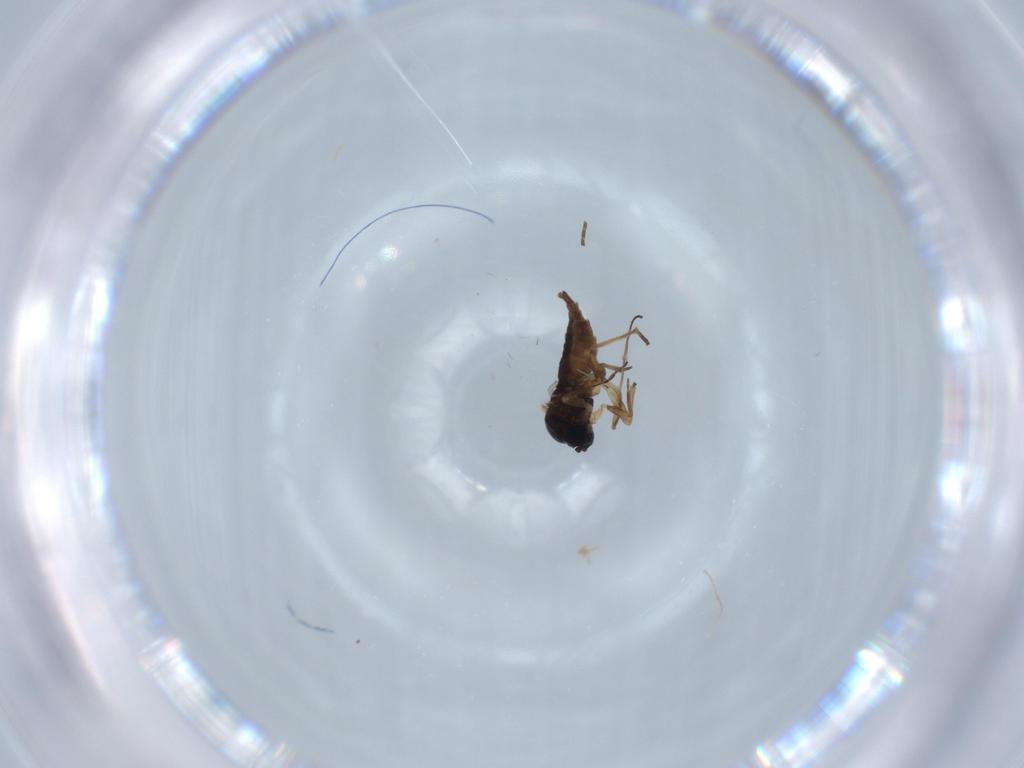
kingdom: Animalia
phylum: Arthropoda
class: Insecta
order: Diptera
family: Sciaridae
